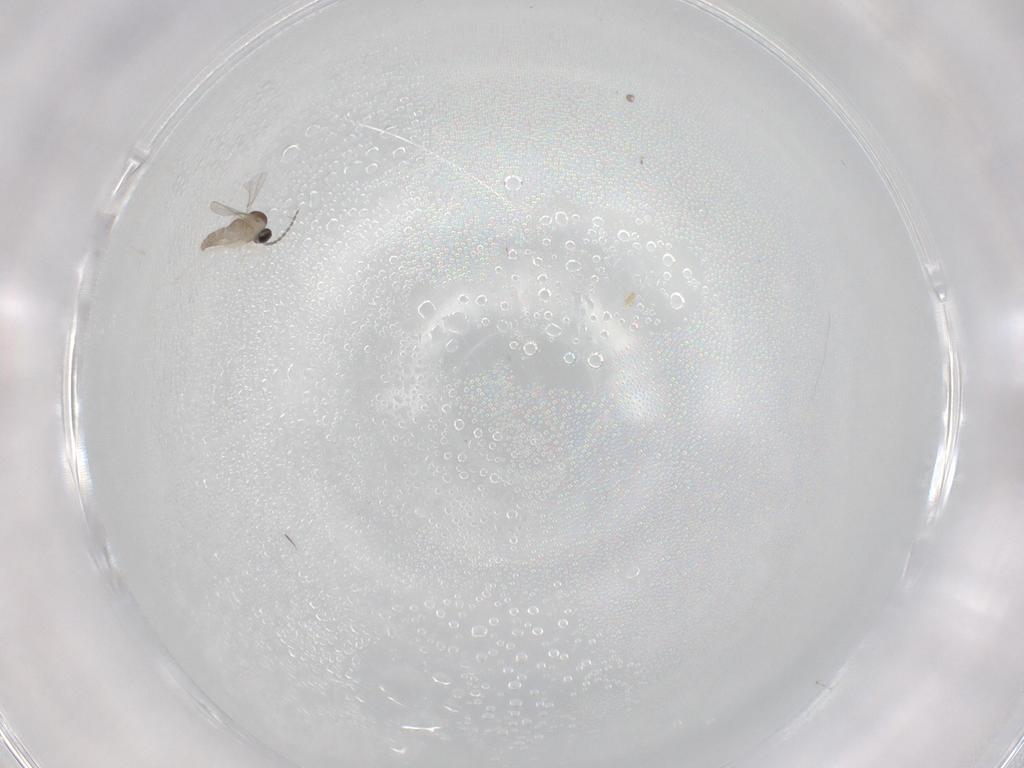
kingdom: Animalia
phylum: Arthropoda
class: Insecta
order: Diptera
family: Cecidomyiidae
